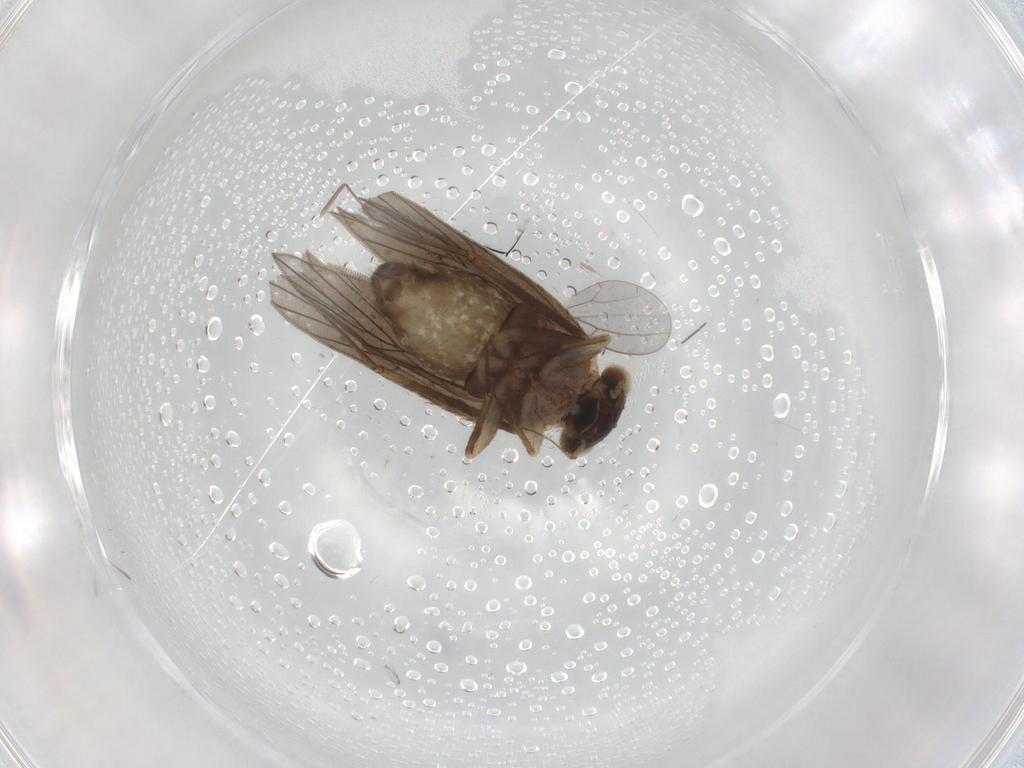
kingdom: Animalia
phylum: Arthropoda
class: Insecta
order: Psocodea
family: Lepidopsocidae
